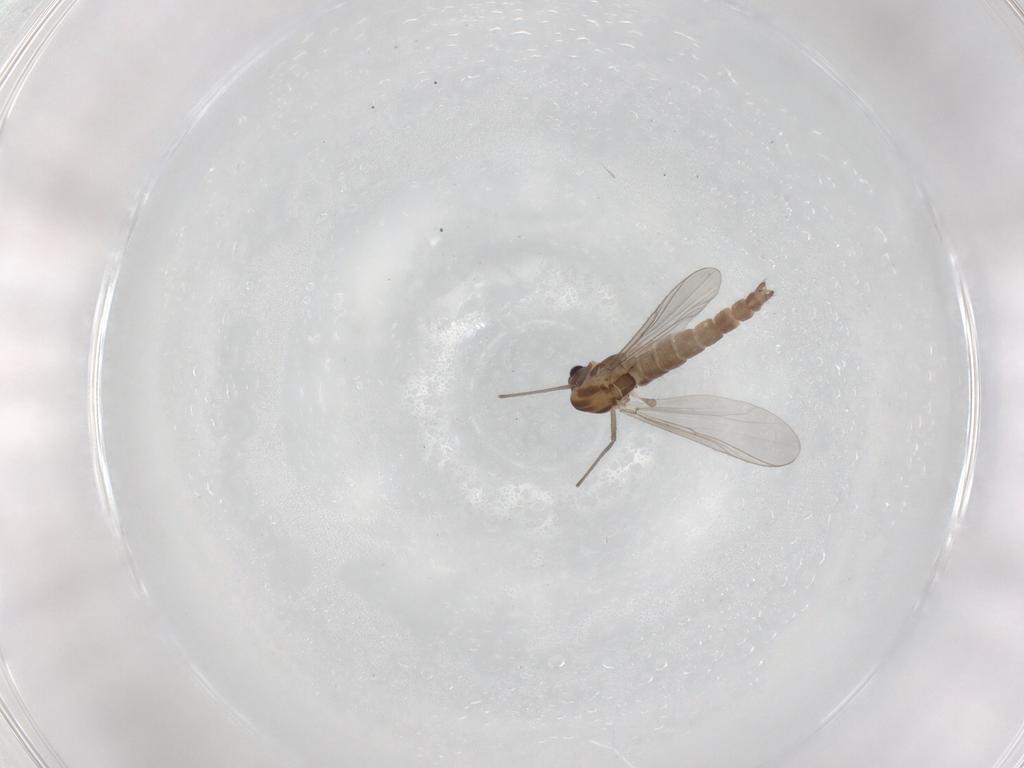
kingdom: Animalia
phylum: Arthropoda
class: Insecta
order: Diptera
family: Chironomidae
